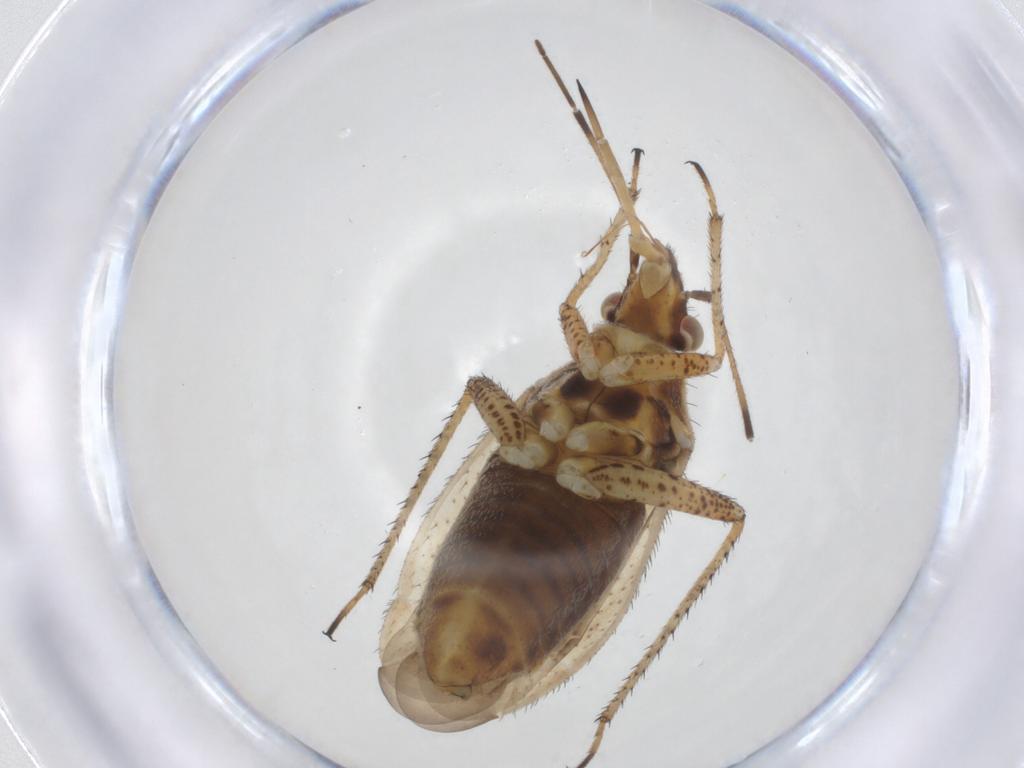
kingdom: Animalia
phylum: Arthropoda
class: Insecta
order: Hemiptera
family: Miridae
